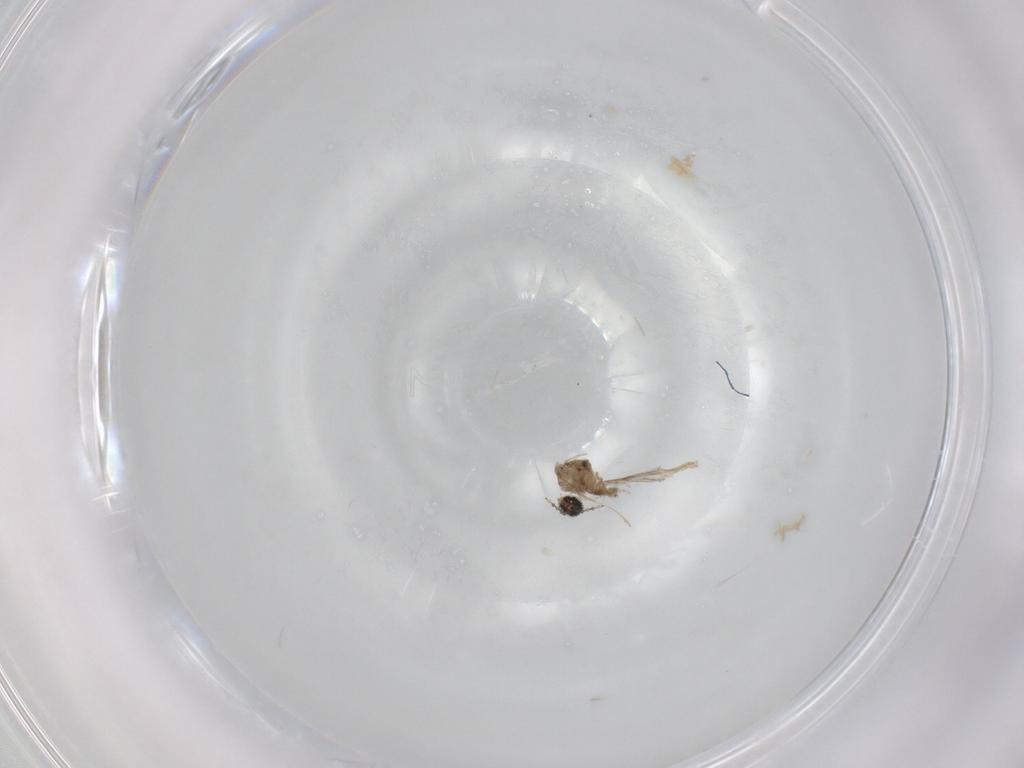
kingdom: Animalia
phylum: Arthropoda
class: Insecta
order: Diptera
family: Cecidomyiidae
